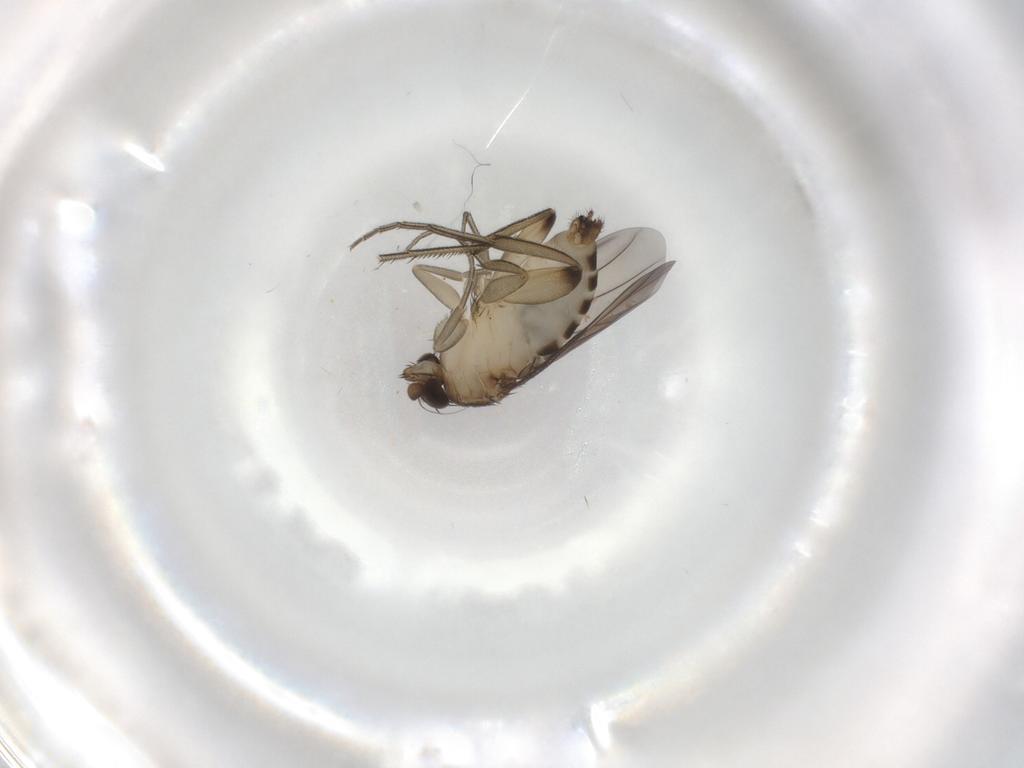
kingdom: Animalia
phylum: Arthropoda
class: Insecta
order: Diptera
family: Phoridae
